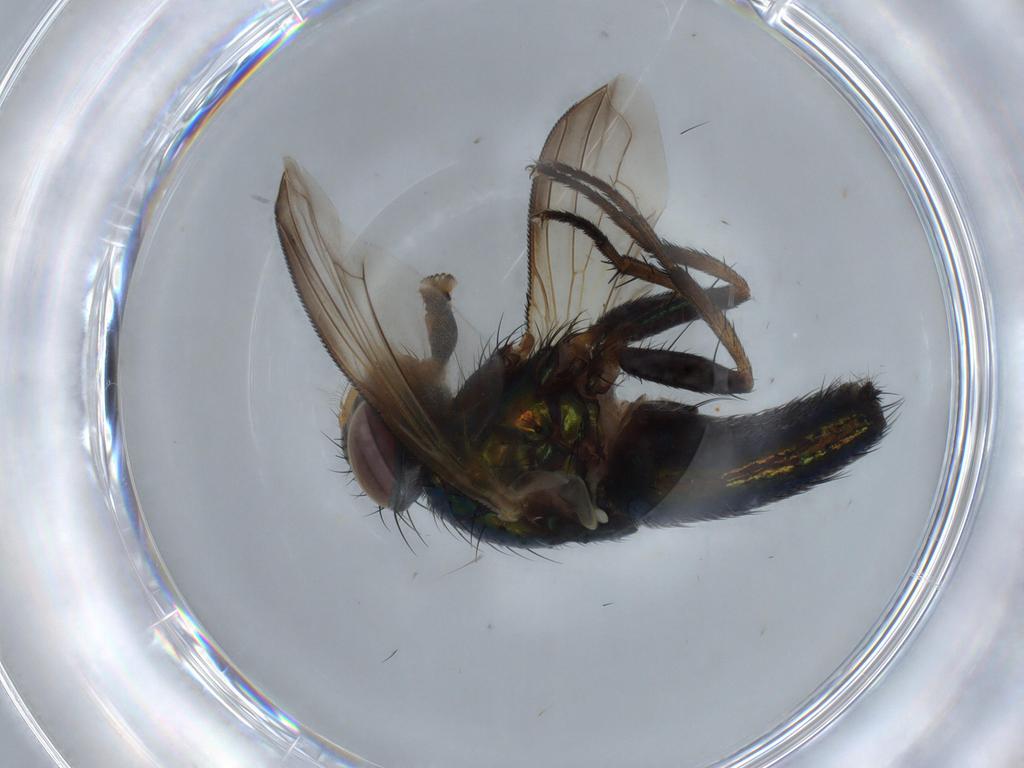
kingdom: Animalia
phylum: Arthropoda
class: Insecta
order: Diptera
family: Calliphoridae
